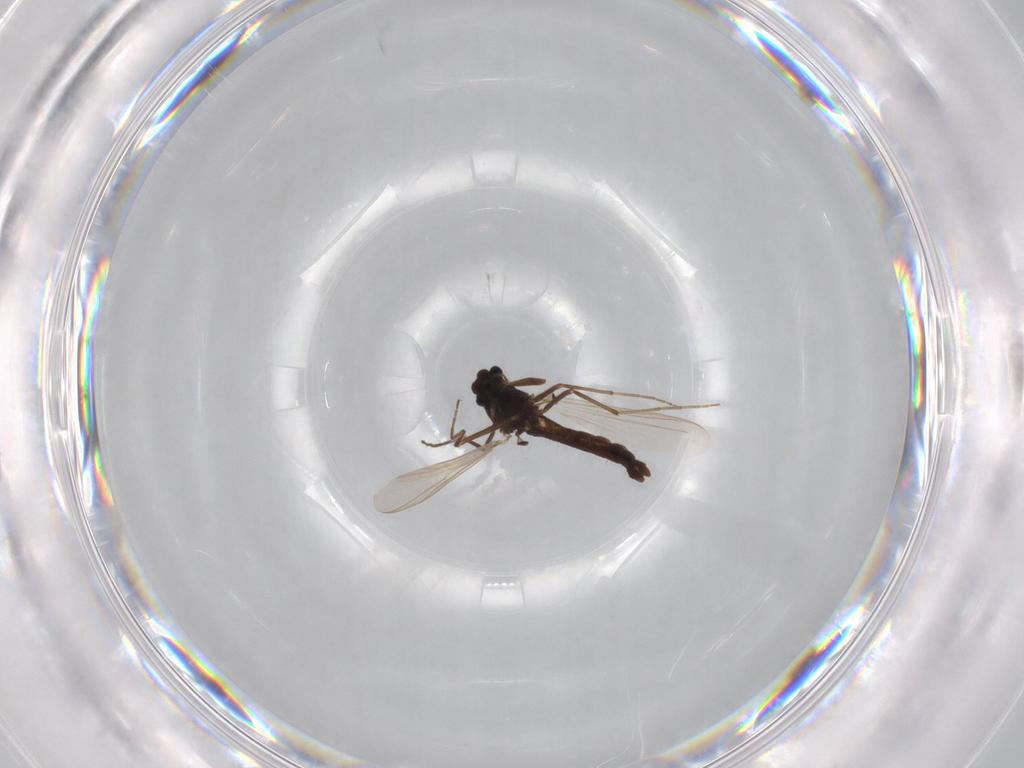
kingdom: Animalia
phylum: Arthropoda
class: Insecta
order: Diptera
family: Chironomidae
